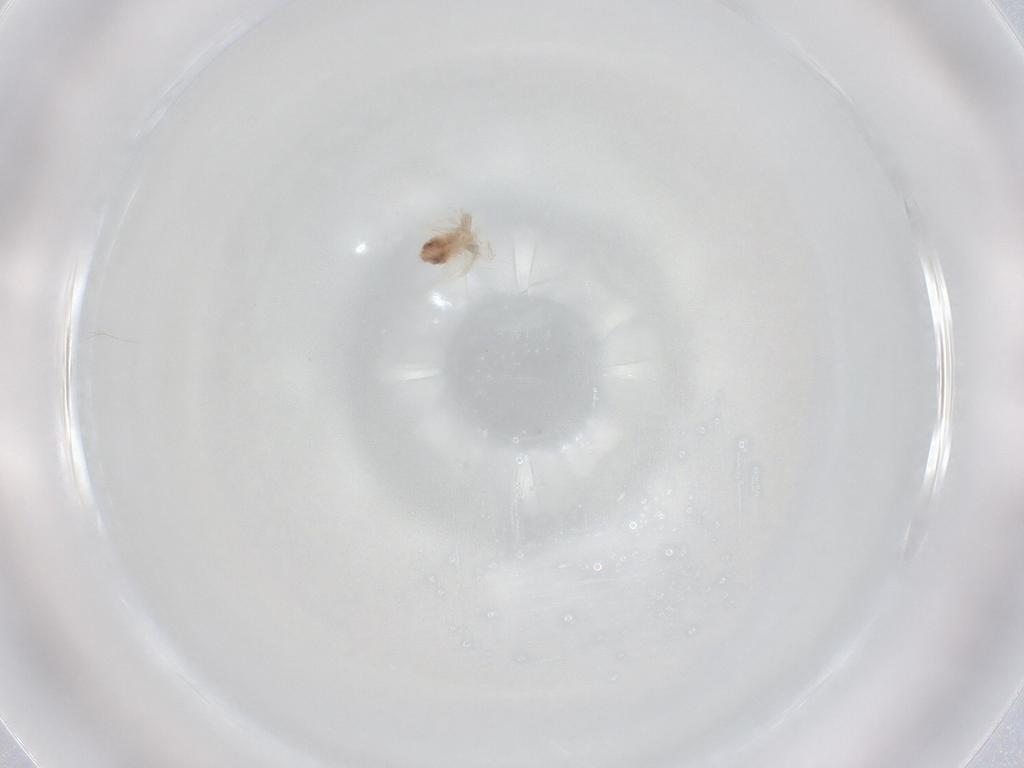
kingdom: Animalia
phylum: Arthropoda
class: Arachnida
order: Trombidiformes
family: Anystidae
